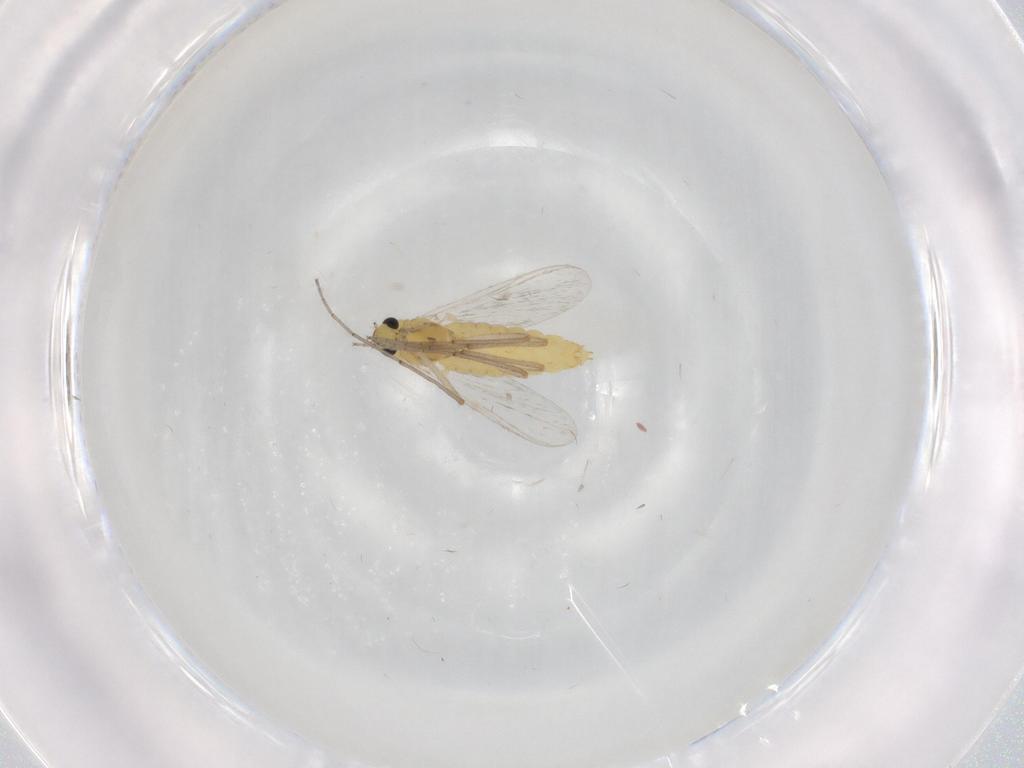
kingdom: Animalia
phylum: Arthropoda
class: Insecta
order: Diptera
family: Chironomidae
